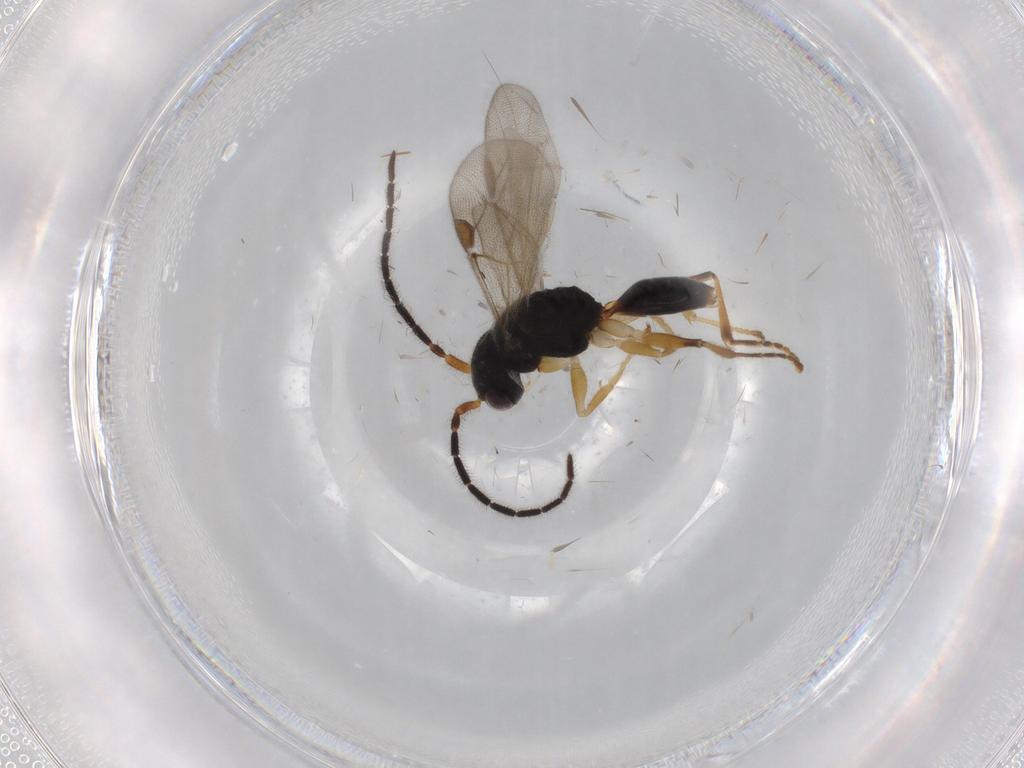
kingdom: Animalia
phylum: Arthropoda
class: Insecta
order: Hymenoptera
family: Dryinidae
